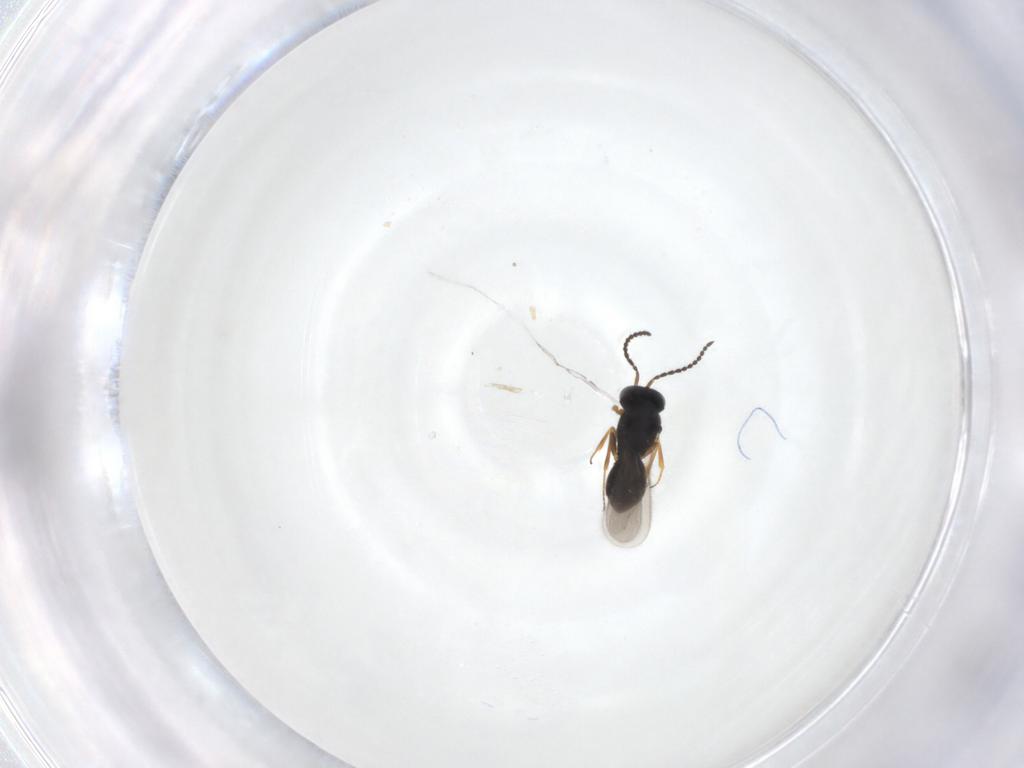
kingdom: Animalia
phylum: Arthropoda
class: Insecta
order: Hymenoptera
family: Scelionidae
